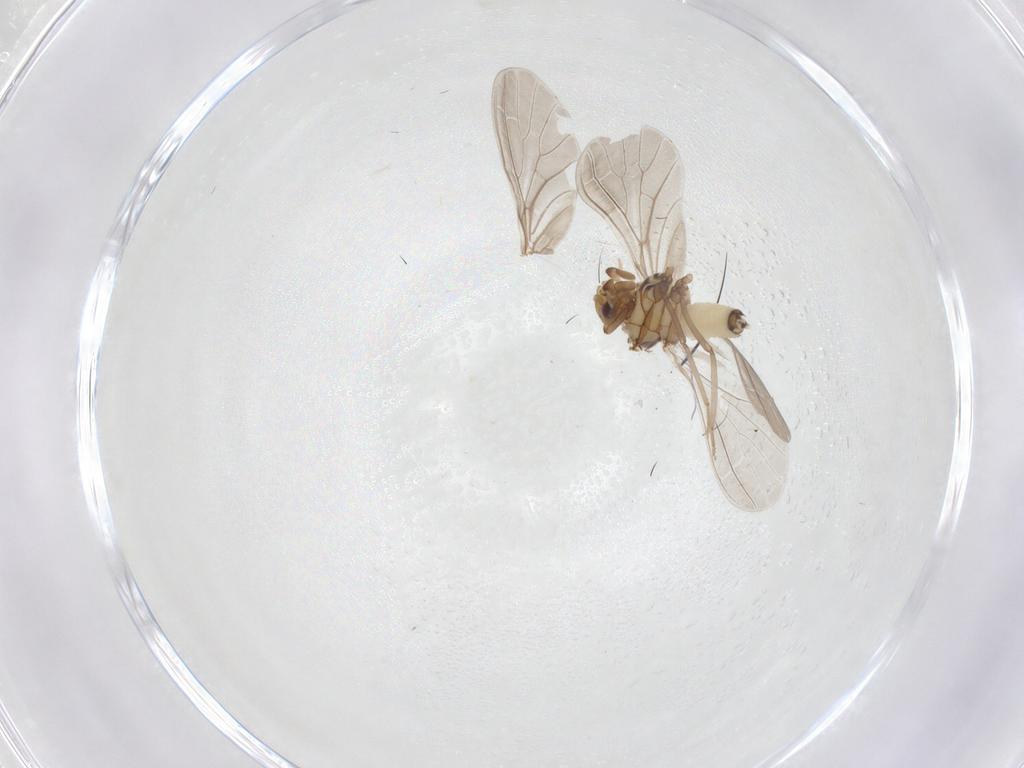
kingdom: Animalia
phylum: Arthropoda
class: Insecta
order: Neuroptera
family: Coniopterygidae
